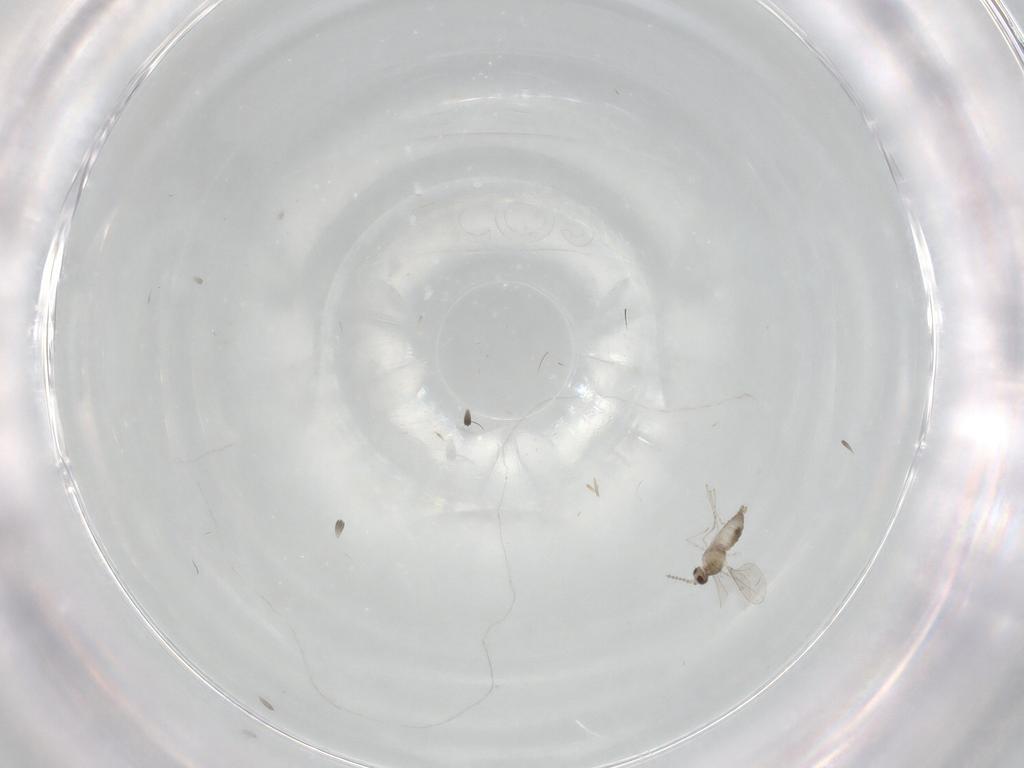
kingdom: Animalia
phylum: Arthropoda
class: Insecta
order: Diptera
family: Cecidomyiidae
